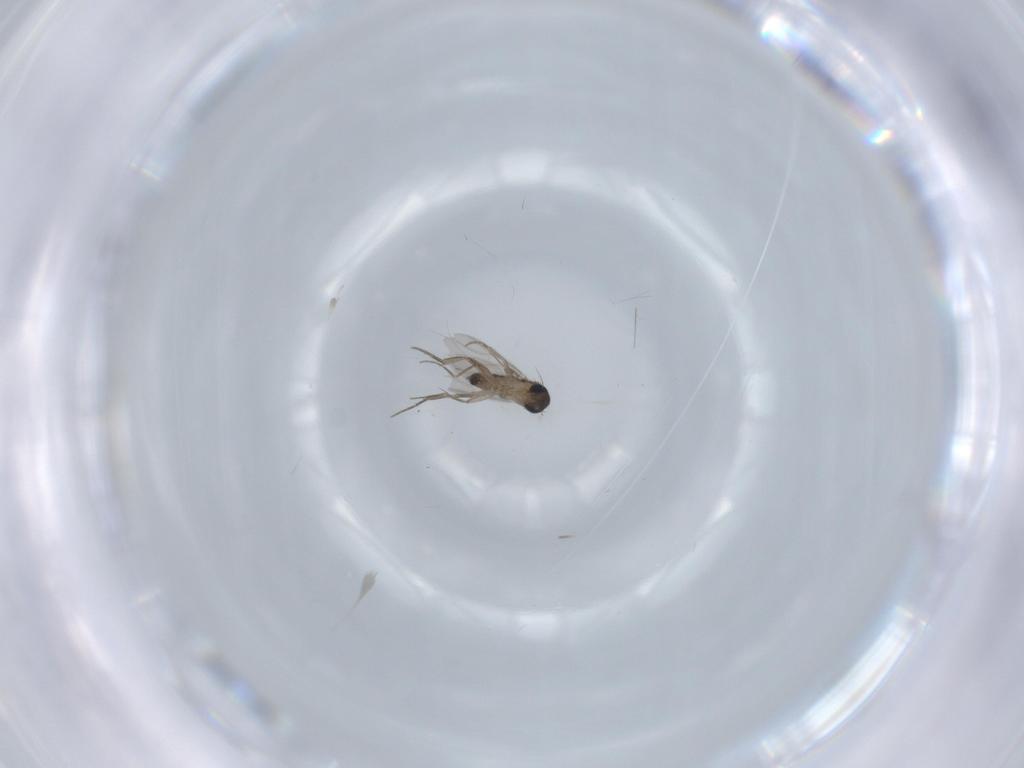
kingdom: Animalia
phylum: Arthropoda
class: Insecta
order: Diptera
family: Phoridae
